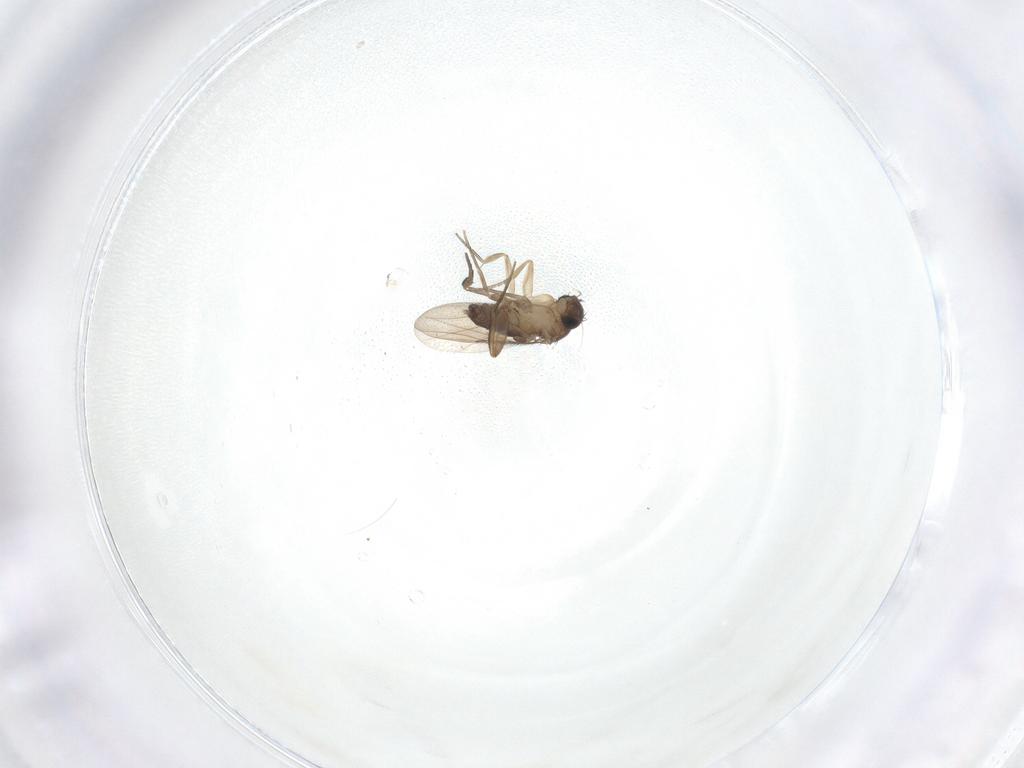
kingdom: Animalia
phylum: Arthropoda
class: Insecta
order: Diptera
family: Phoridae
